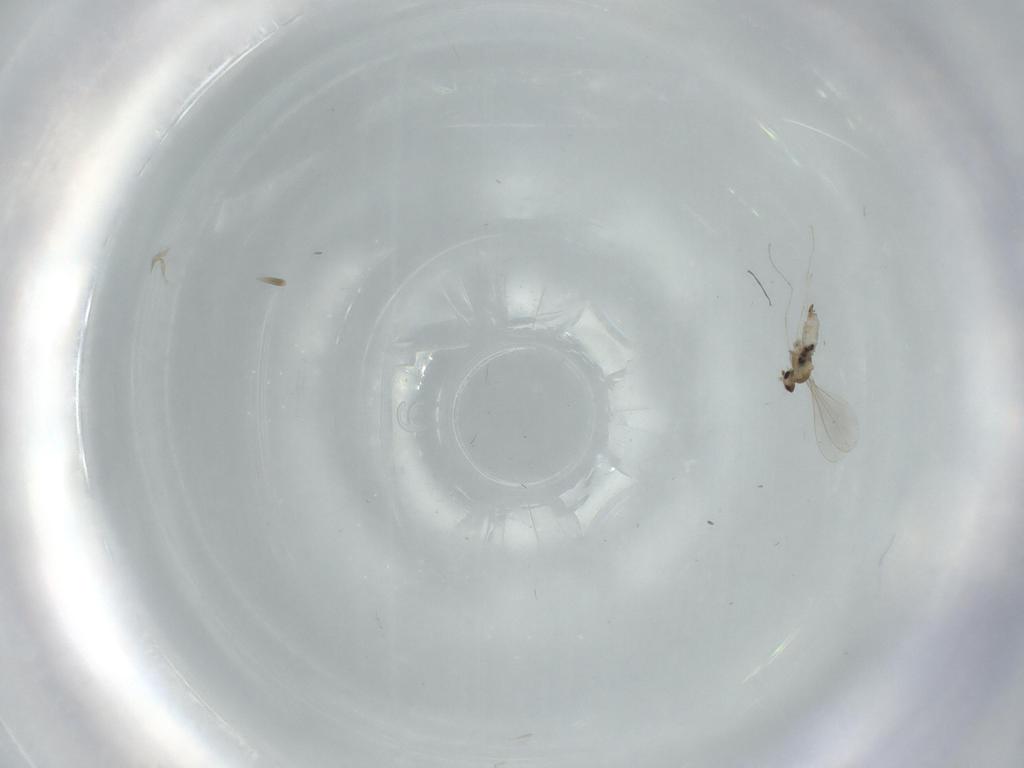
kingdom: Animalia
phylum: Arthropoda
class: Insecta
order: Diptera
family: Cecidomyiidae
